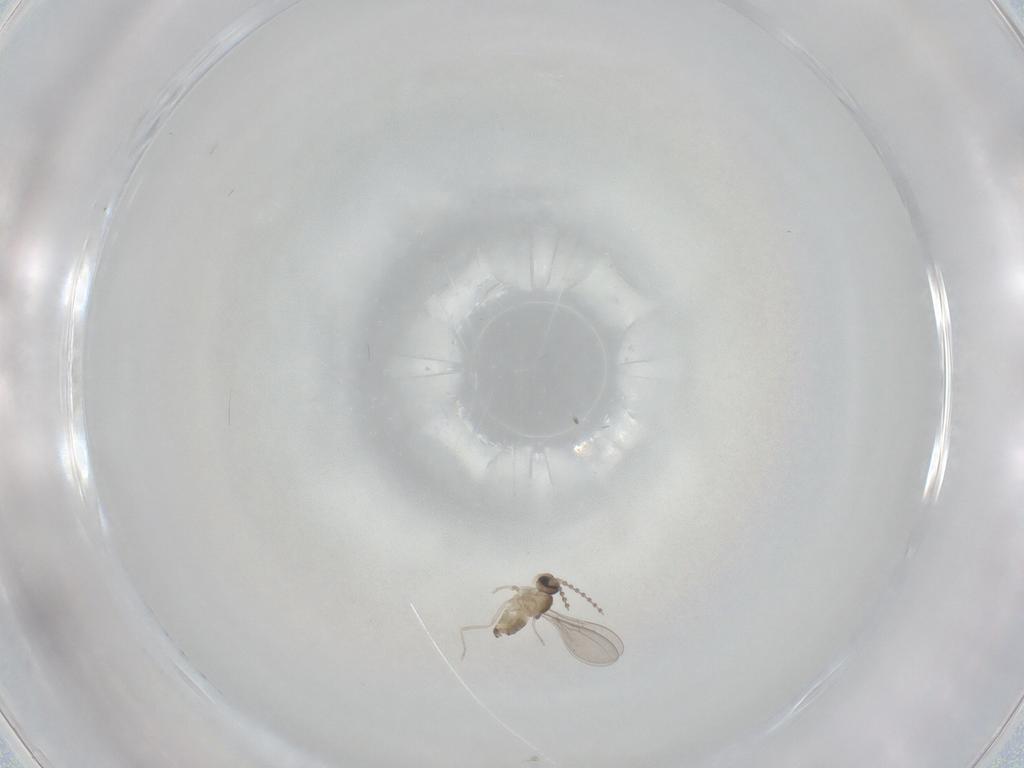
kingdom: Animalia
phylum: Arthropoda
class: Insecta
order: Diptera
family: Cecidomyiidae
